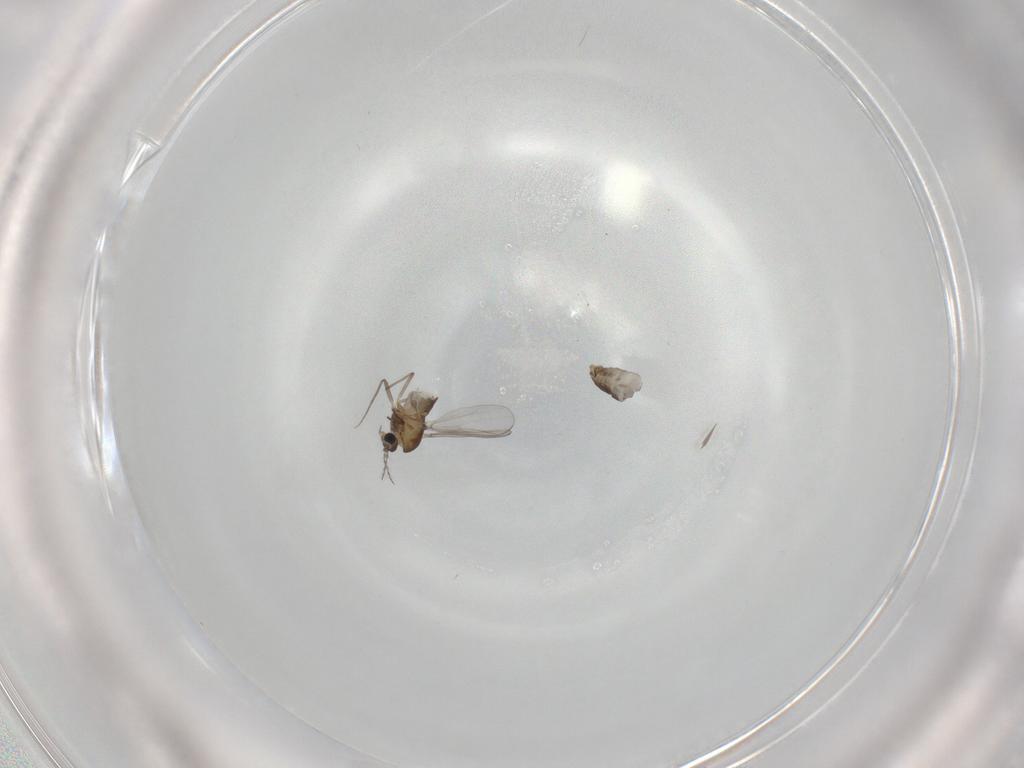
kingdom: Animalia
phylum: Arthropoda
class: Insecta
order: Diptera
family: Chironomidae
